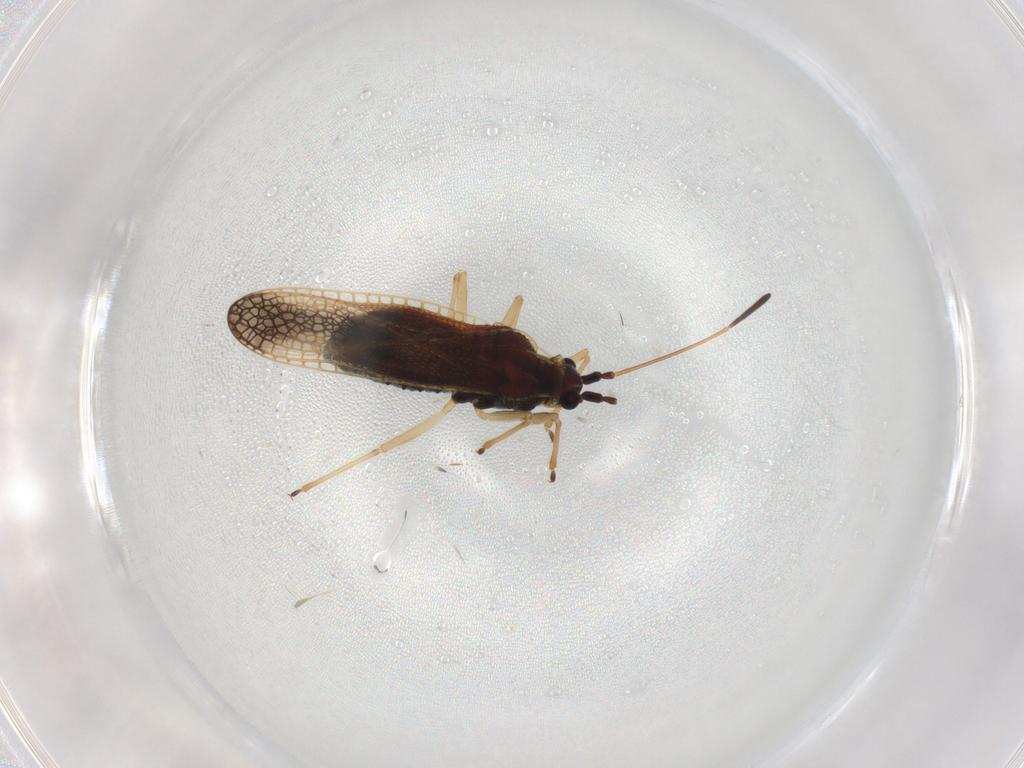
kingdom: Animalia
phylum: Arthropoda
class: Insecta
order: Hemiptera
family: Tingidae
